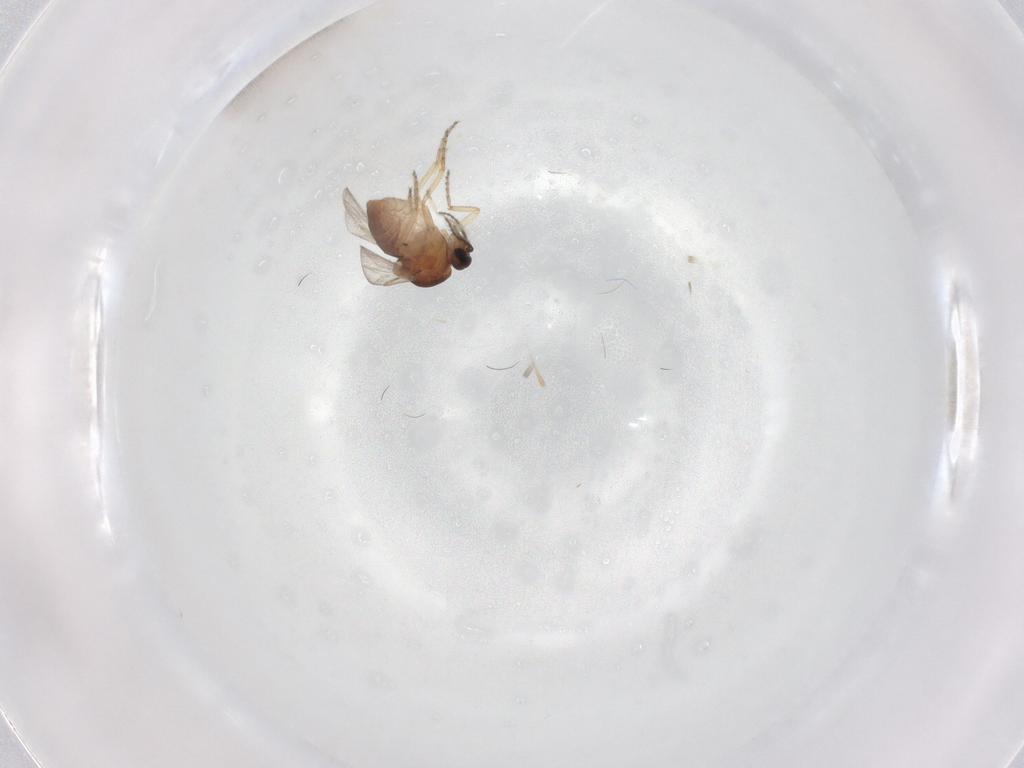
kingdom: Animalia
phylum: Arthropoda
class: Insecta
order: Diptera
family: Ceratopogonidae
